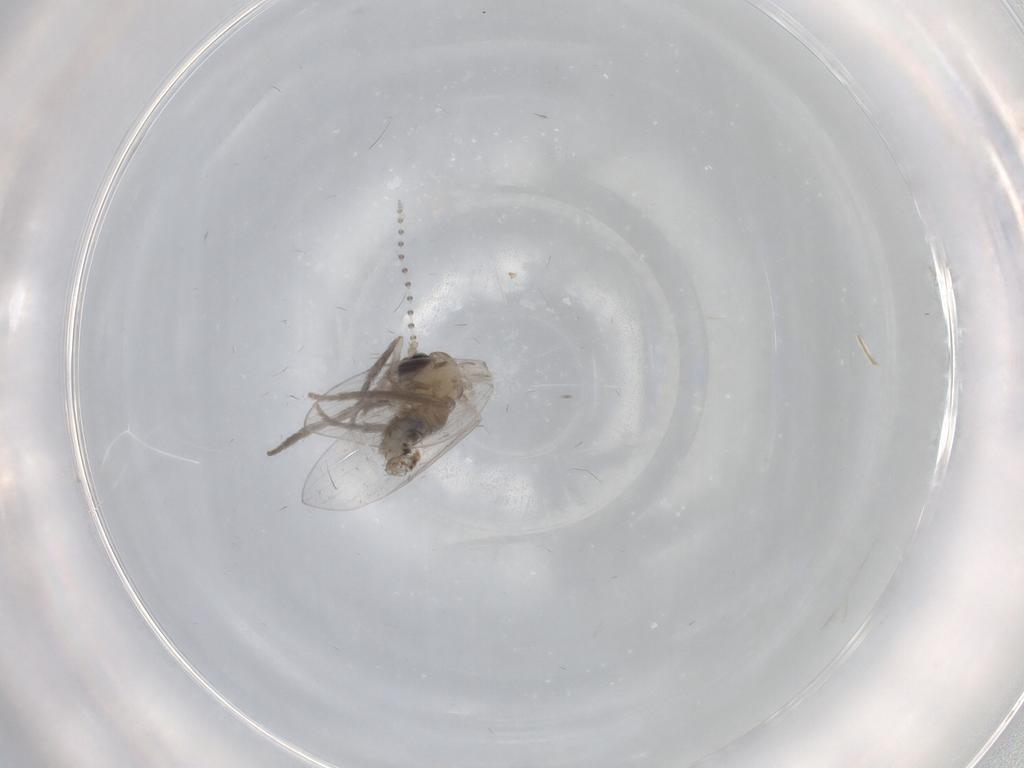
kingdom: Animalia
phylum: Arthropoda
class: Insecta
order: Diptera
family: Psychodidae
